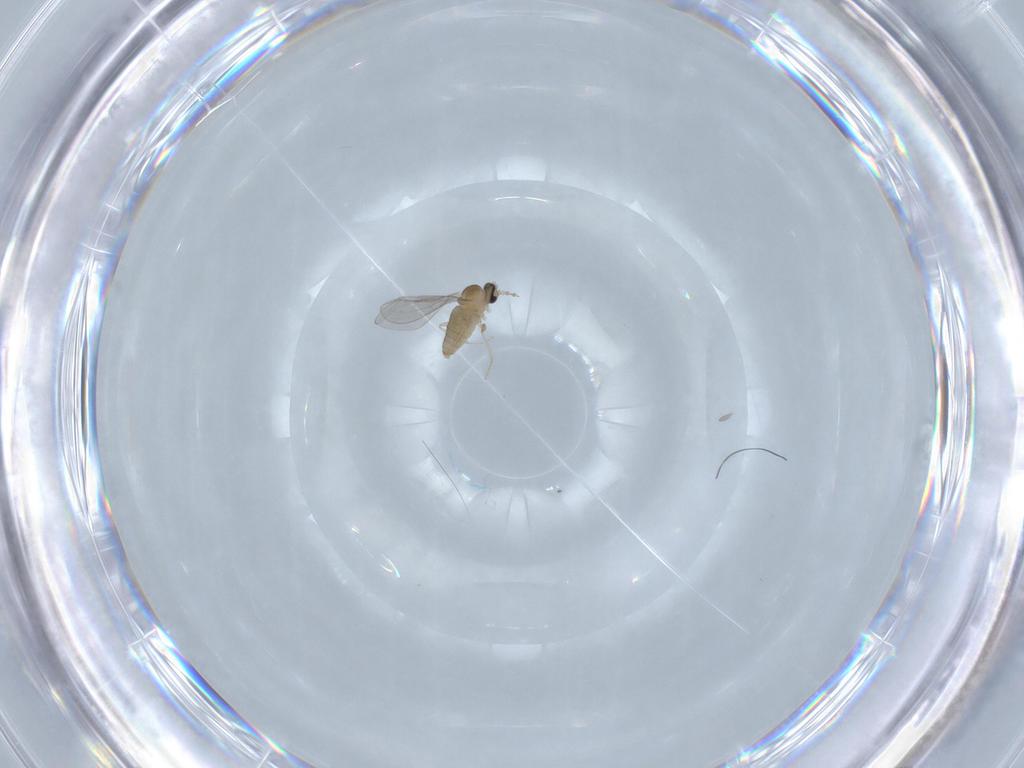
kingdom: Animalia
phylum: Arthropoda
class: Insecta
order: Diptera
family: Cecidomyiidae
